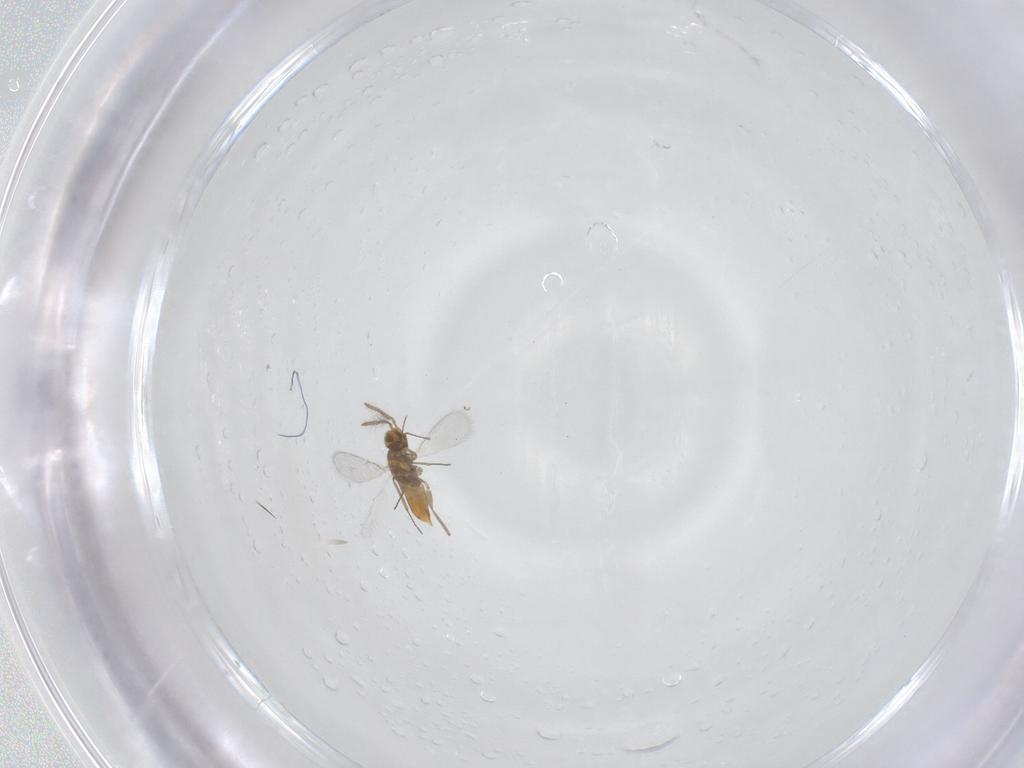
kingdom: Animalia
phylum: Arthropoda
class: Insecta
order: Hymenoptera
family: Aphelinidae
